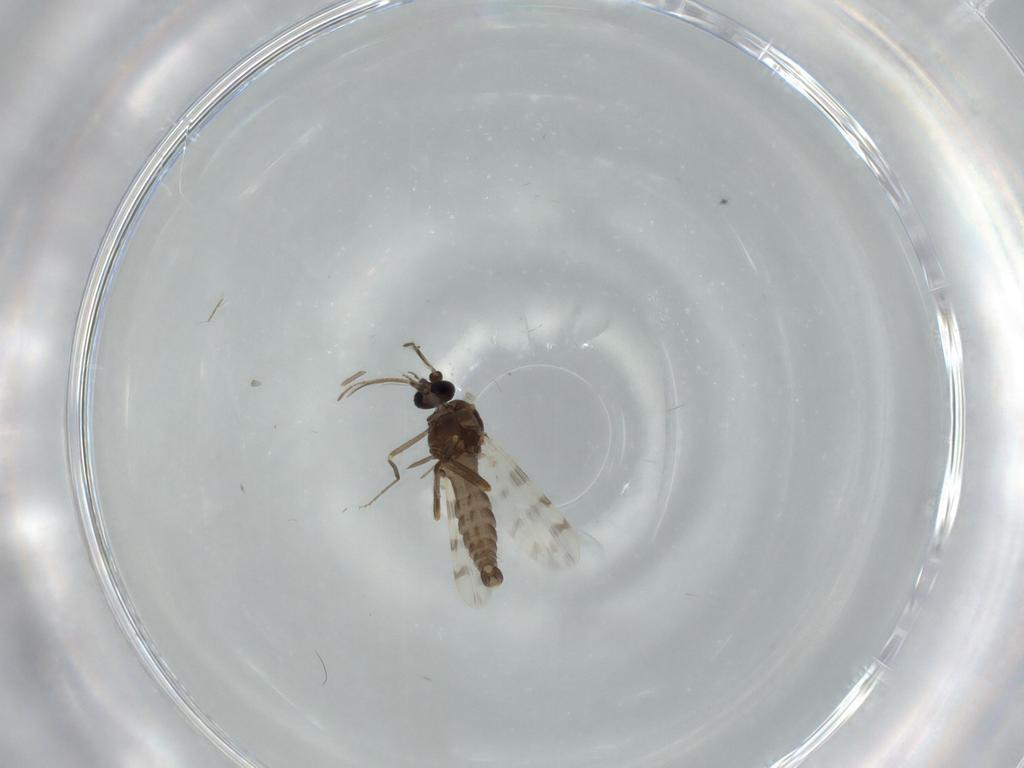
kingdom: Animalia
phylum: Arthropoda
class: Insecta
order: Diptera
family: Ceratopogonidae
